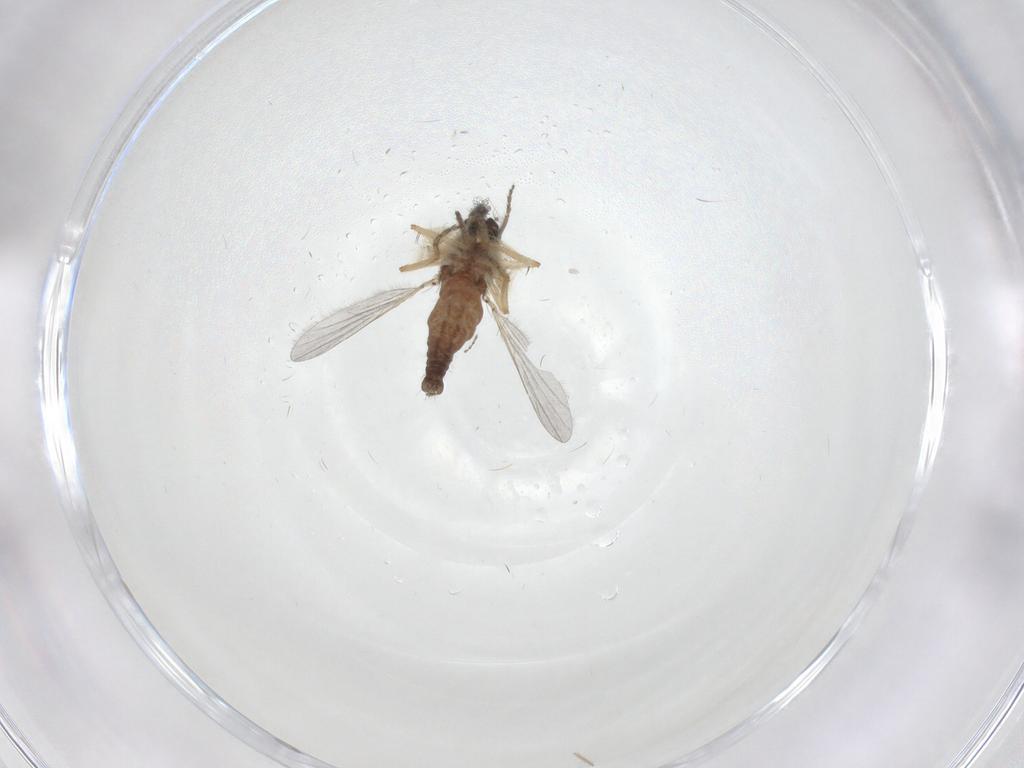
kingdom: Animalia
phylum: Arthropoda
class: Insecta
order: Diptera
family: Ceratopogonidae
